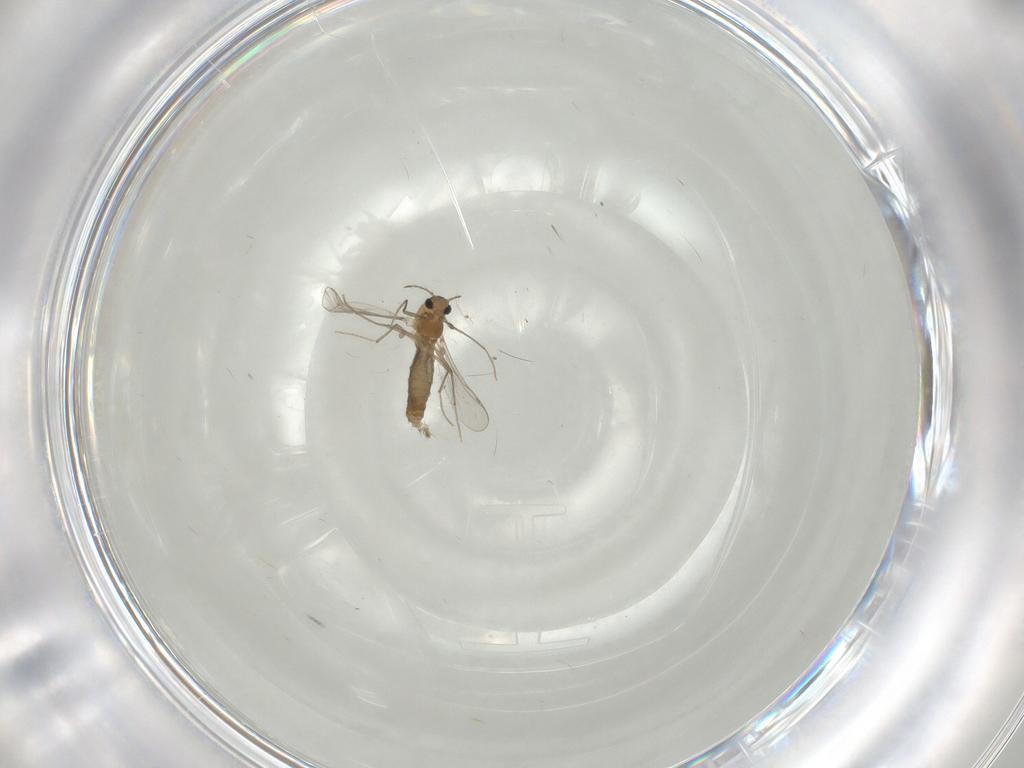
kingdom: Animalia
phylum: Arthropoda
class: Insecta
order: Diptera
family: Chironomidae
